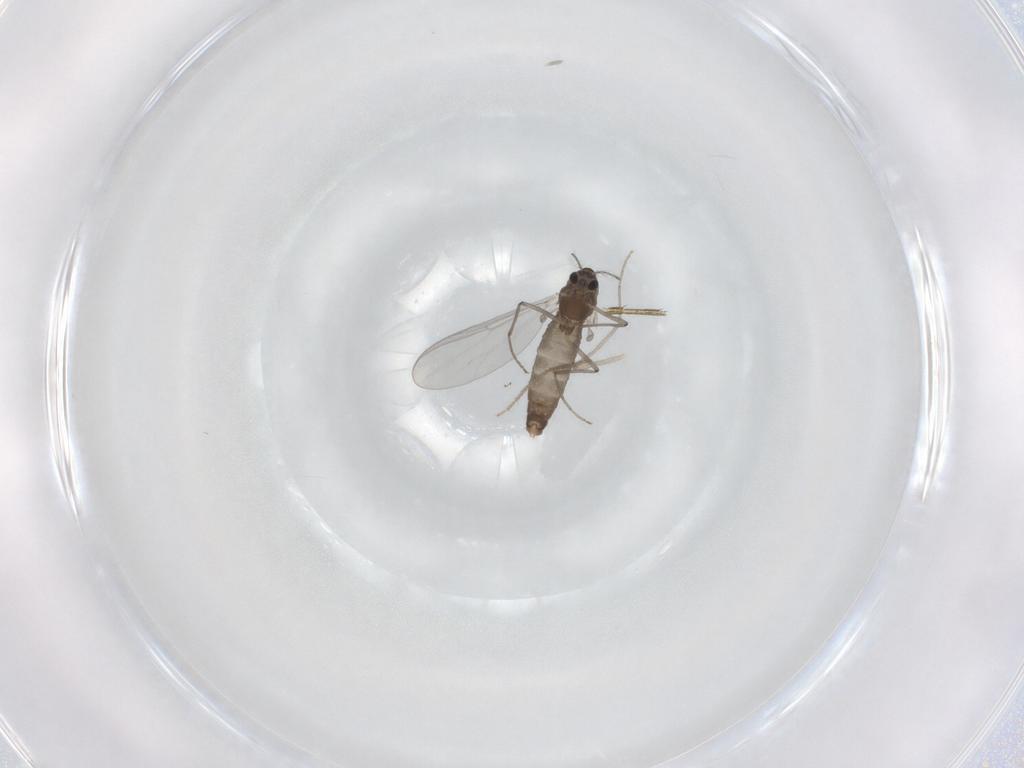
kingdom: Animalia
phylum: Arthropoda
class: Insecta
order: Diptera
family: Chironomidae
